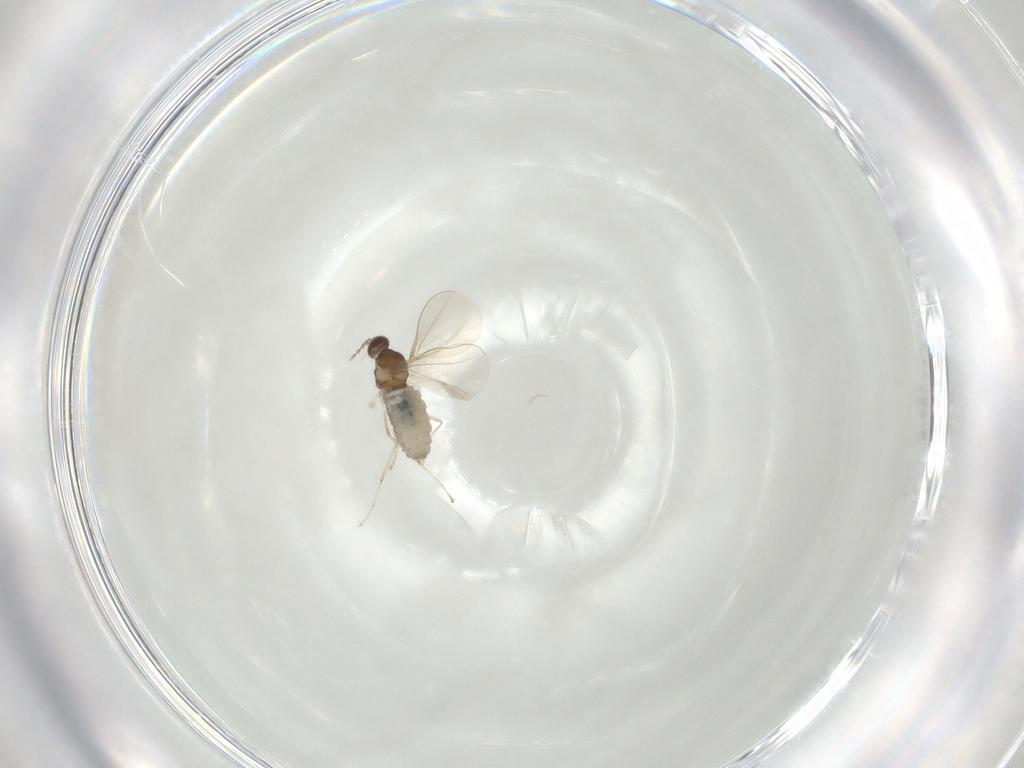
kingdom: Animalia
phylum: Arthropoda
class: Insecta
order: Diptera
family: Cecidomyiidae
